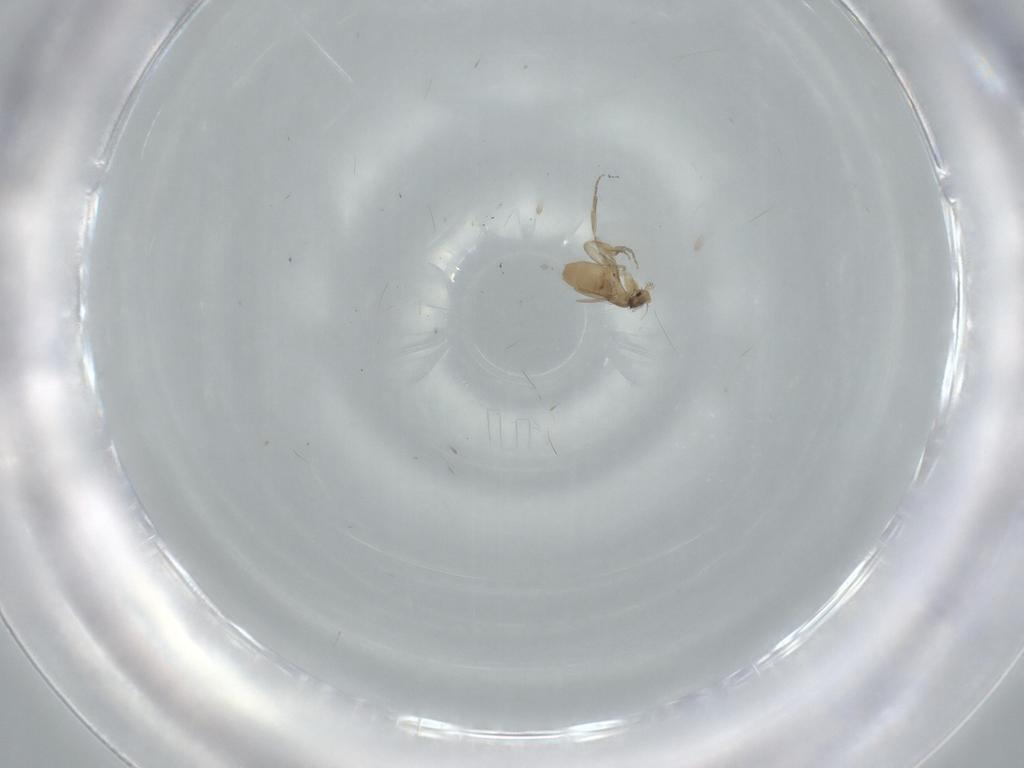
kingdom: Animalia
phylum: Arthropoda
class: Insecta
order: Diptera
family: Phoridae
